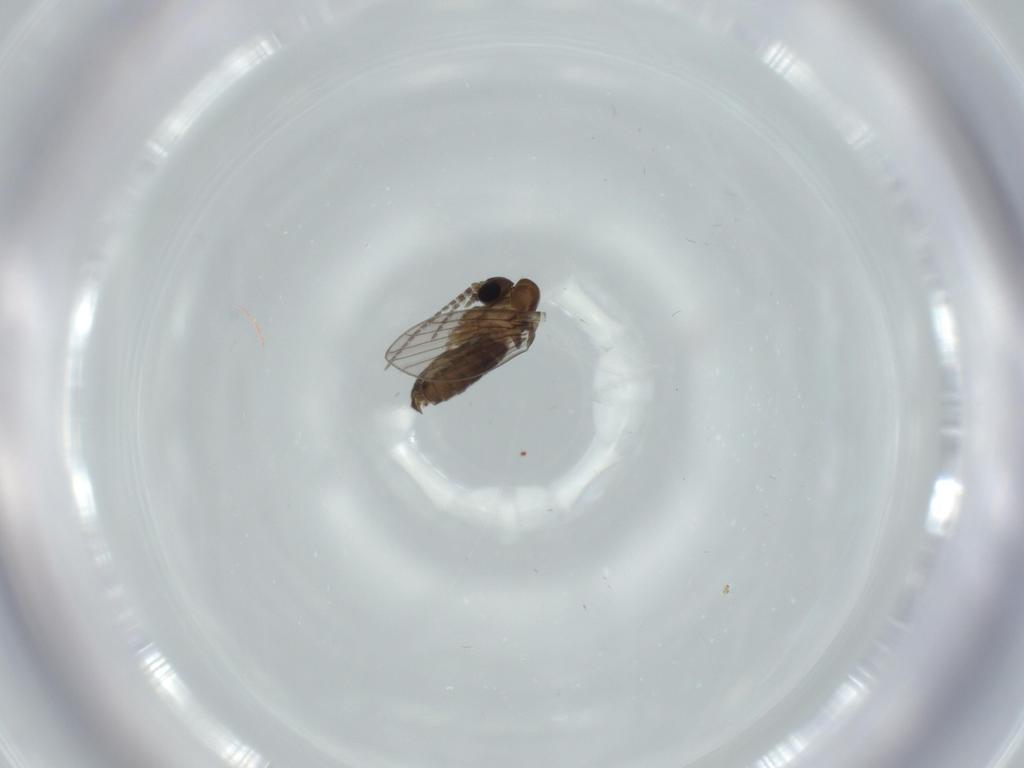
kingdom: Animalia
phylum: Arthropoda
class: Insecta
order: Diptera
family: Psychodidae
